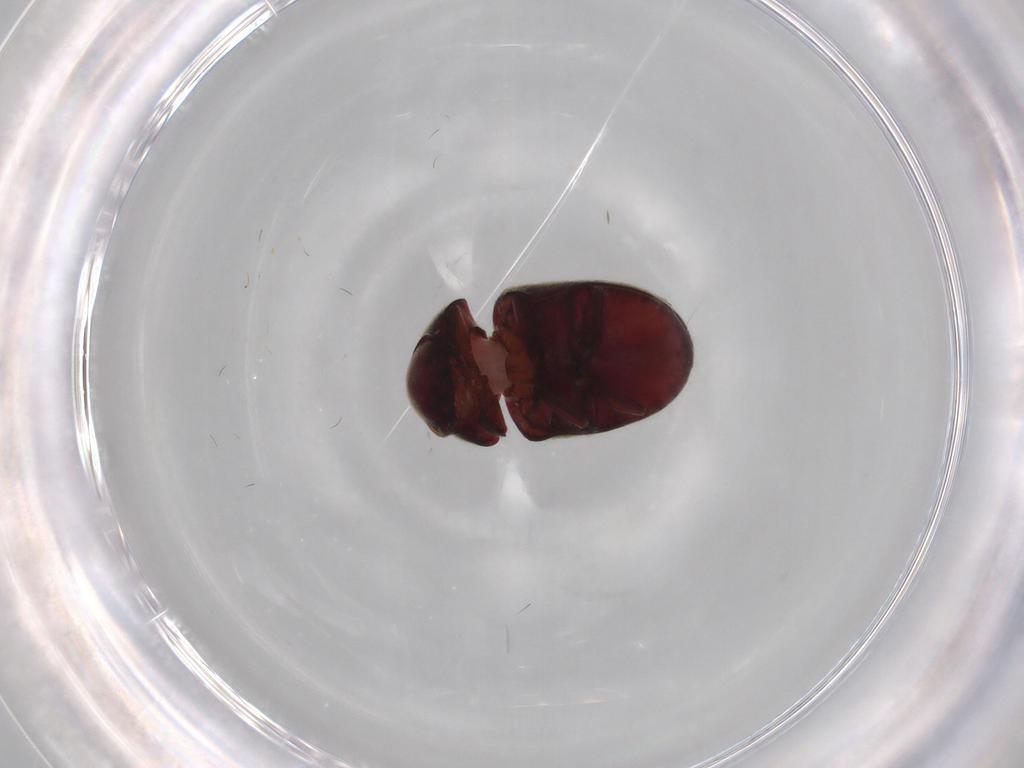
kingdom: Animalia
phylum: Arthropoda
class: Insecta
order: Coleoptera
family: Ptinidae
